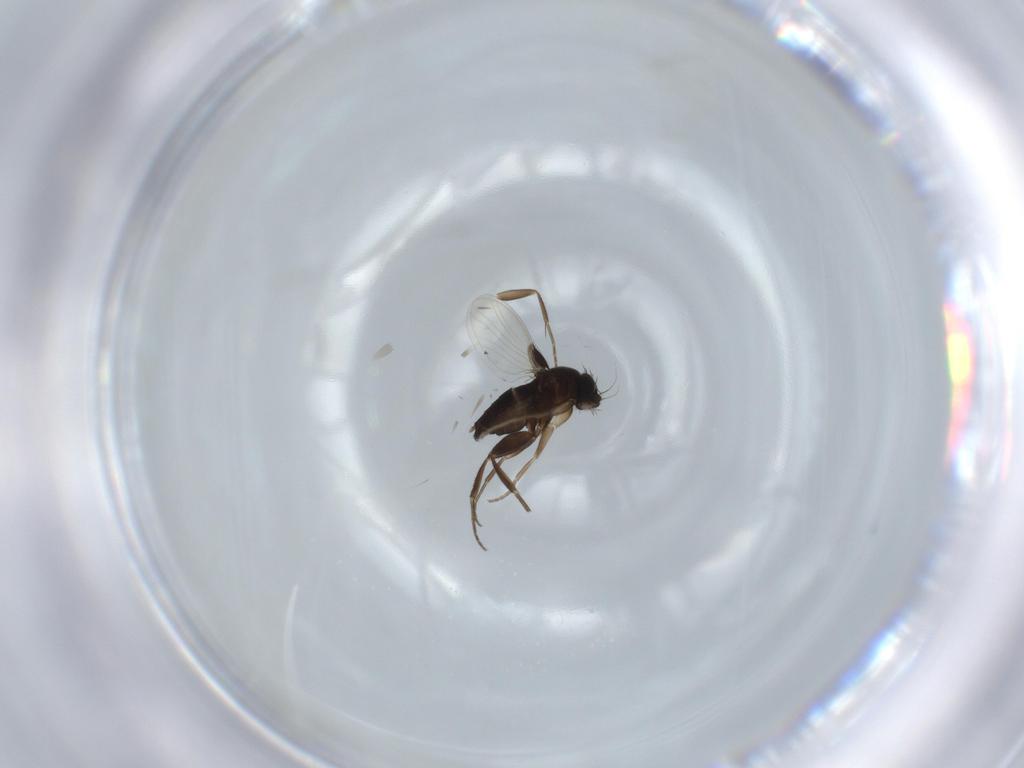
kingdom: Animalia
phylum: Arthropoda
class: Insecta
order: Diptera
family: Phoridae
